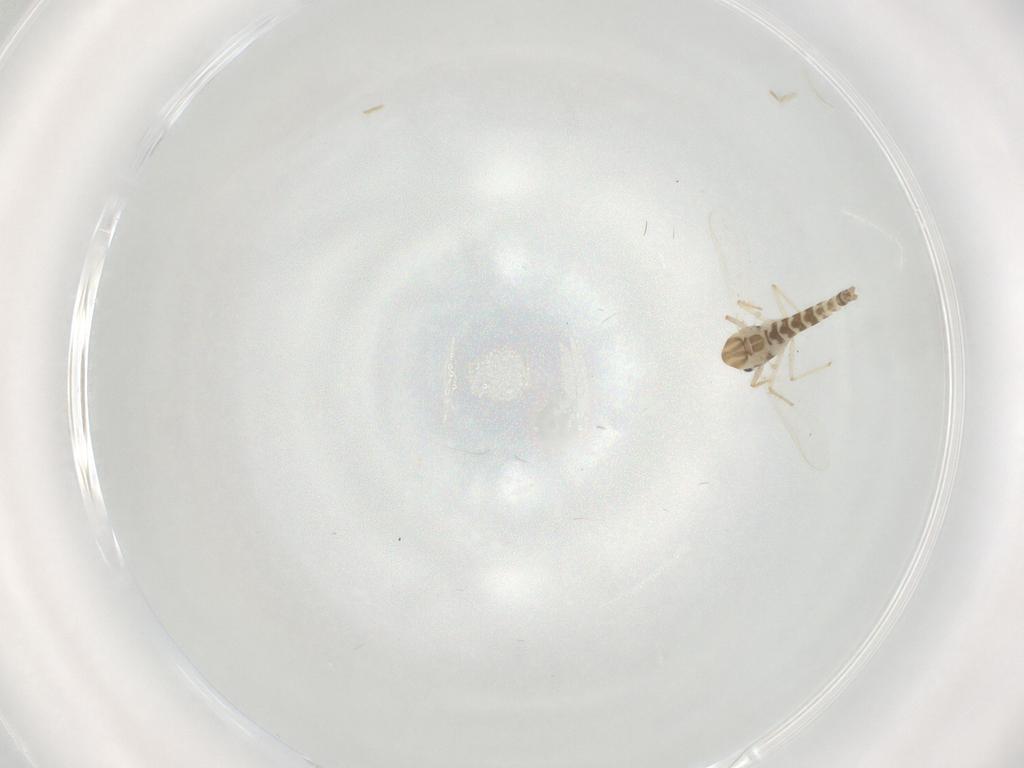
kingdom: Animalia
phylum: Arthropoda
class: Insecta
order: Diptera
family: Chironomidae
